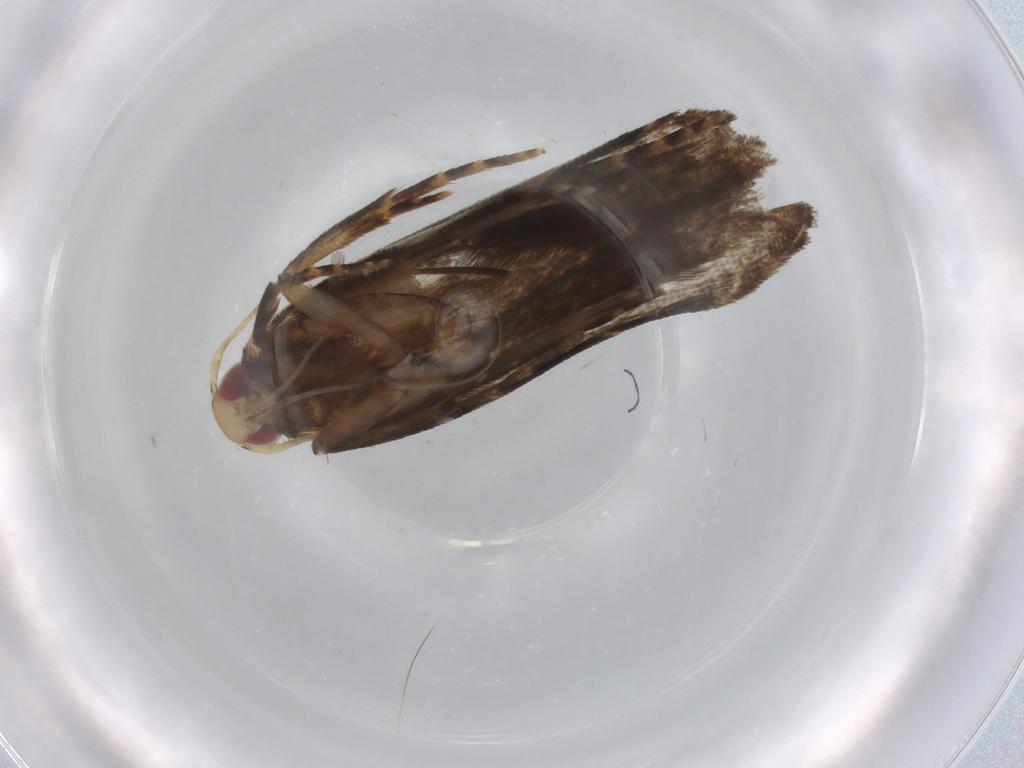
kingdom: Animalia
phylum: Arthropoda
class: Insecta
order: Lepidoptera
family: Gelechiidae
